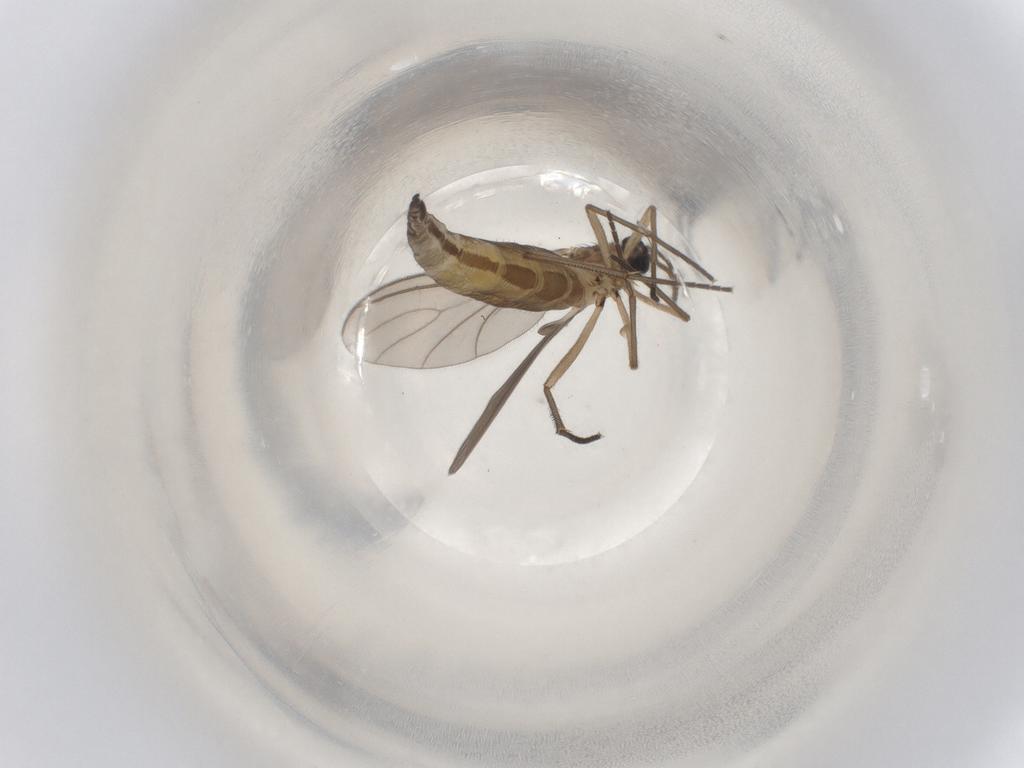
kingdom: Animalia
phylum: Arthropoda
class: Insecta
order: Diptera
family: Sciaridae
